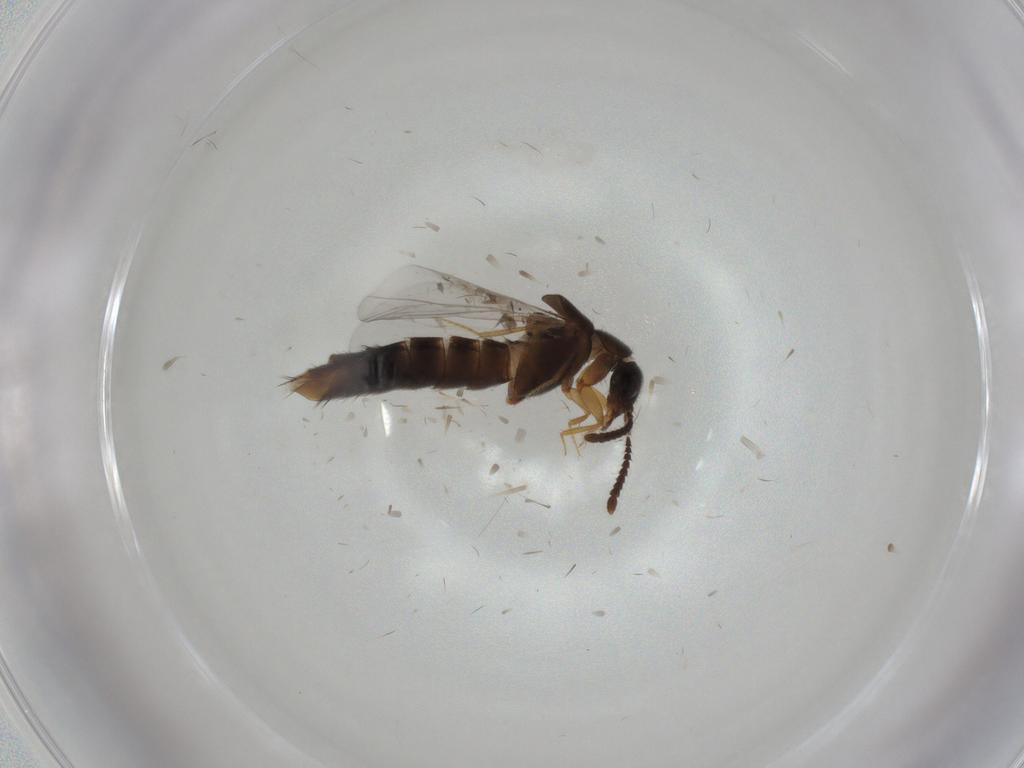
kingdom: Animalia
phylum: Arthropoda
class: Insecta
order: Coleoptera
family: Staphylinidae
